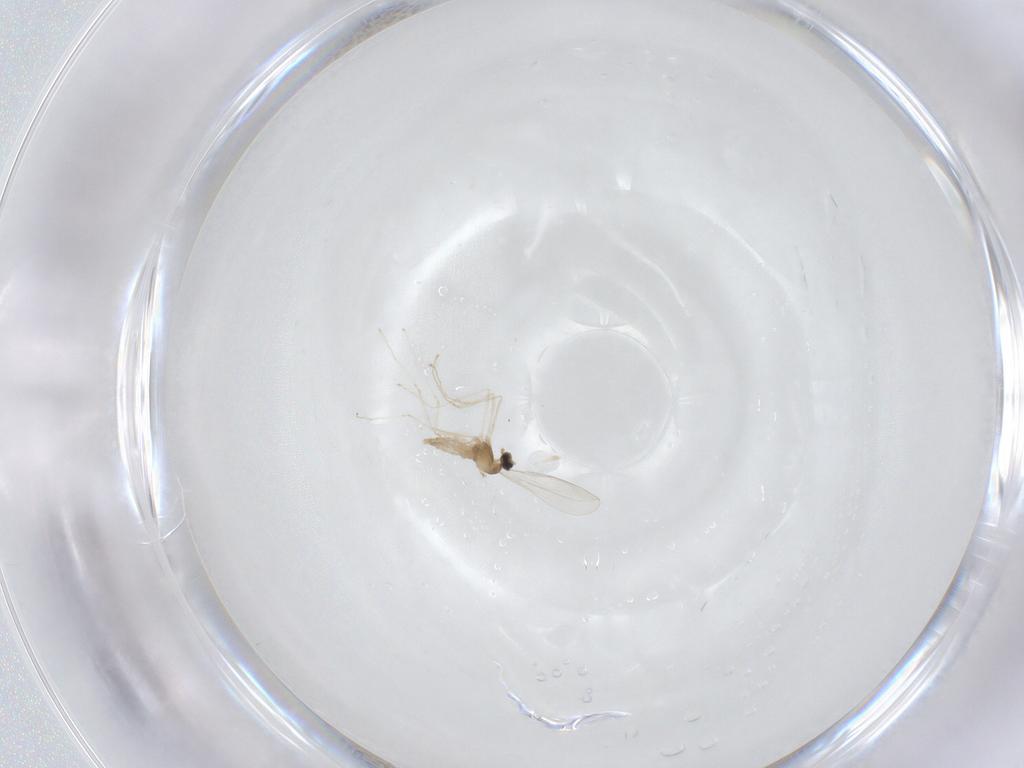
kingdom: Animalia
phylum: Arthropoda
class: Insecta
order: Diptera
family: Cecidomyiidae
